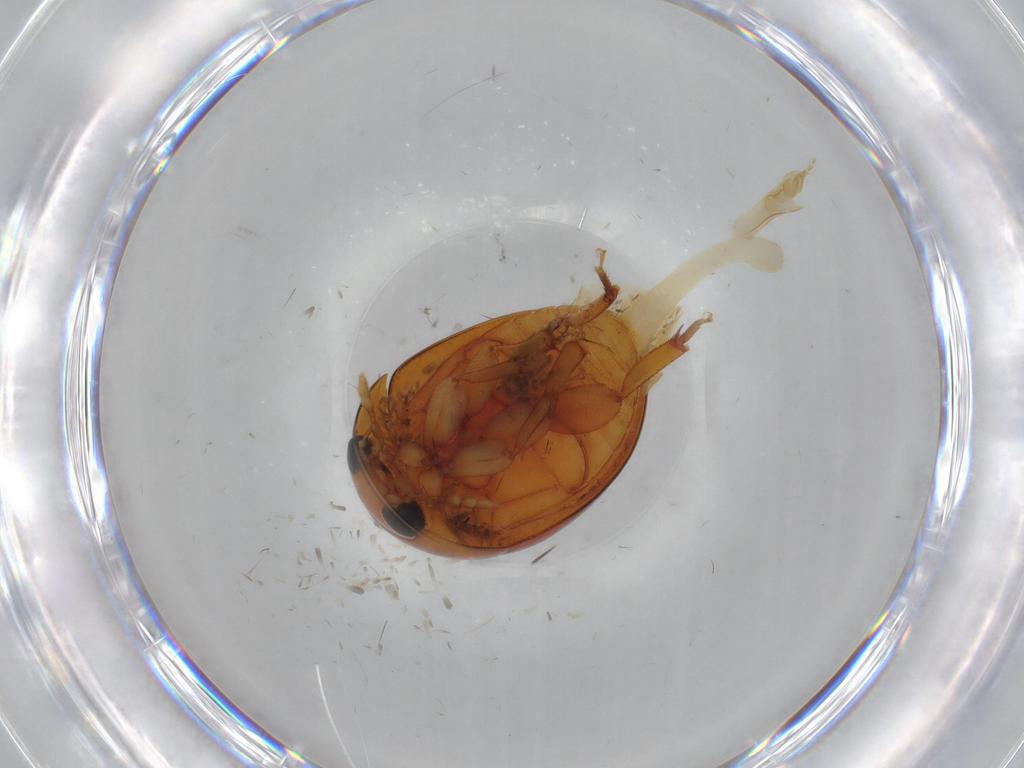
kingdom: Animalia
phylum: Arthropoda
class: Insecta
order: Coleoptera
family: Phalacridae
